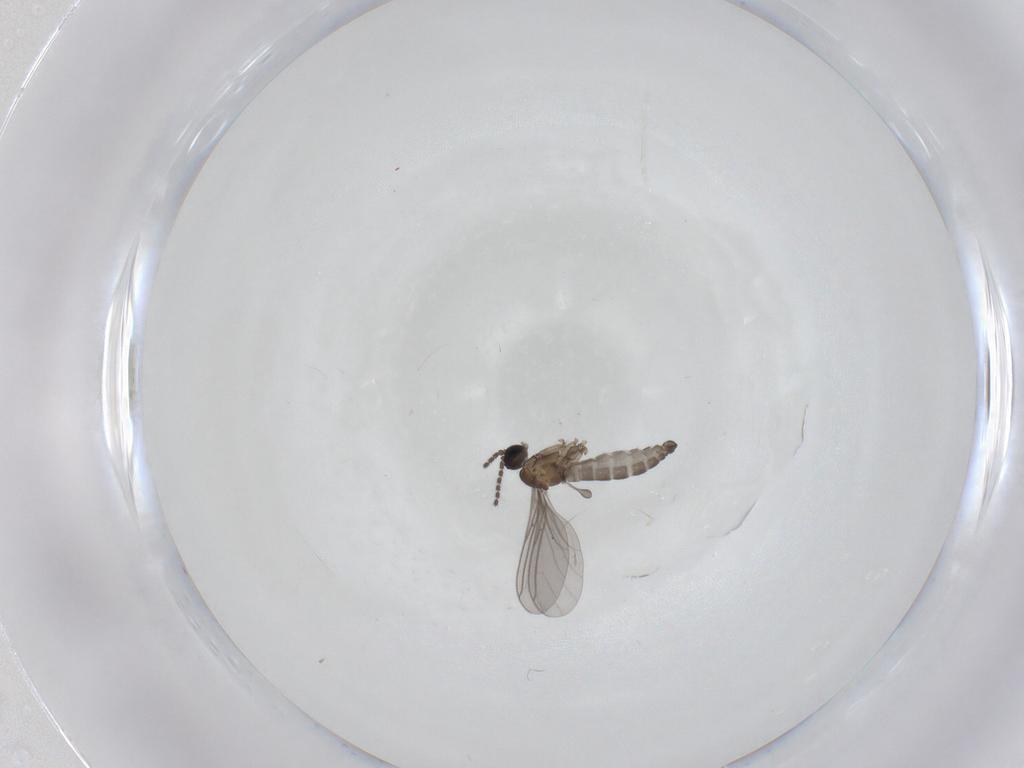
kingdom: Animalia
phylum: Arthropoda
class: Insecta
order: Diptera
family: Sciaridae
